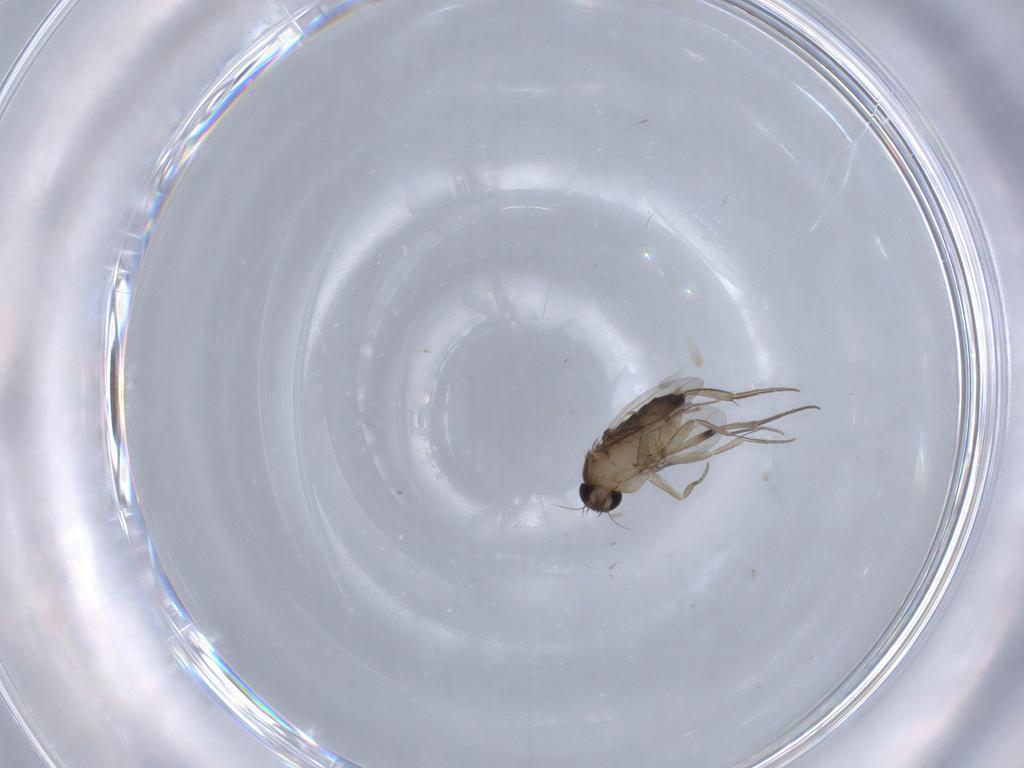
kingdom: Animalia
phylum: Arthropoda
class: Insecta
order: Diptera
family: Phoridae
